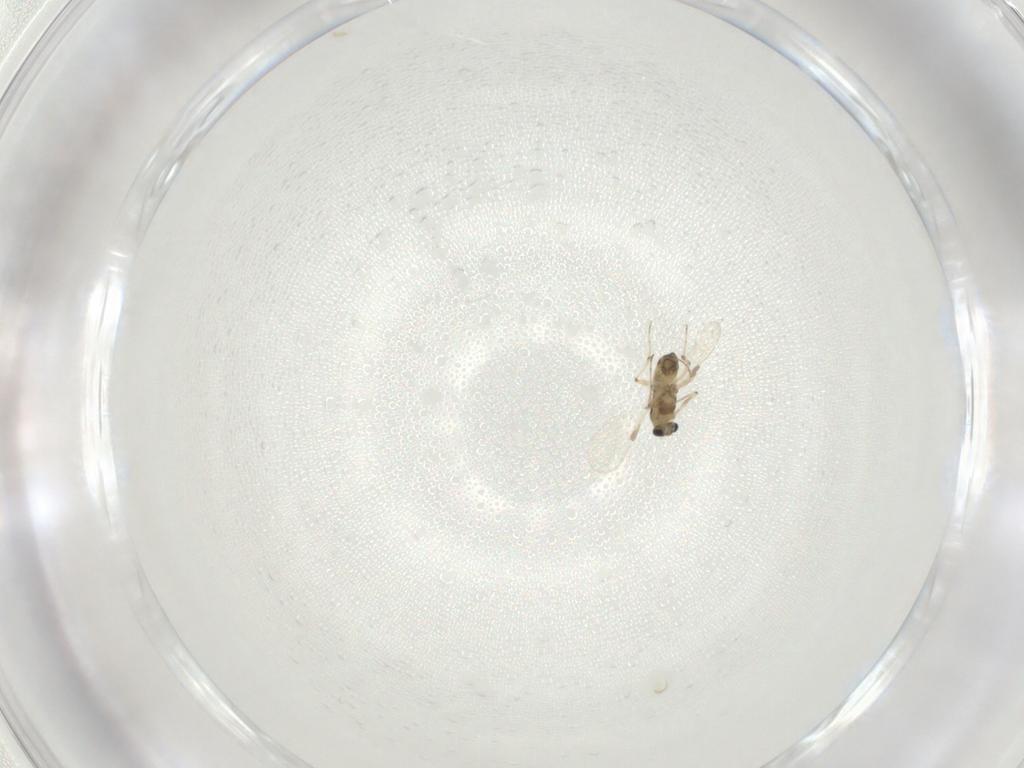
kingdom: Animalia
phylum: Arthropoda
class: Insecta
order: Diptera
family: Chironomidae
